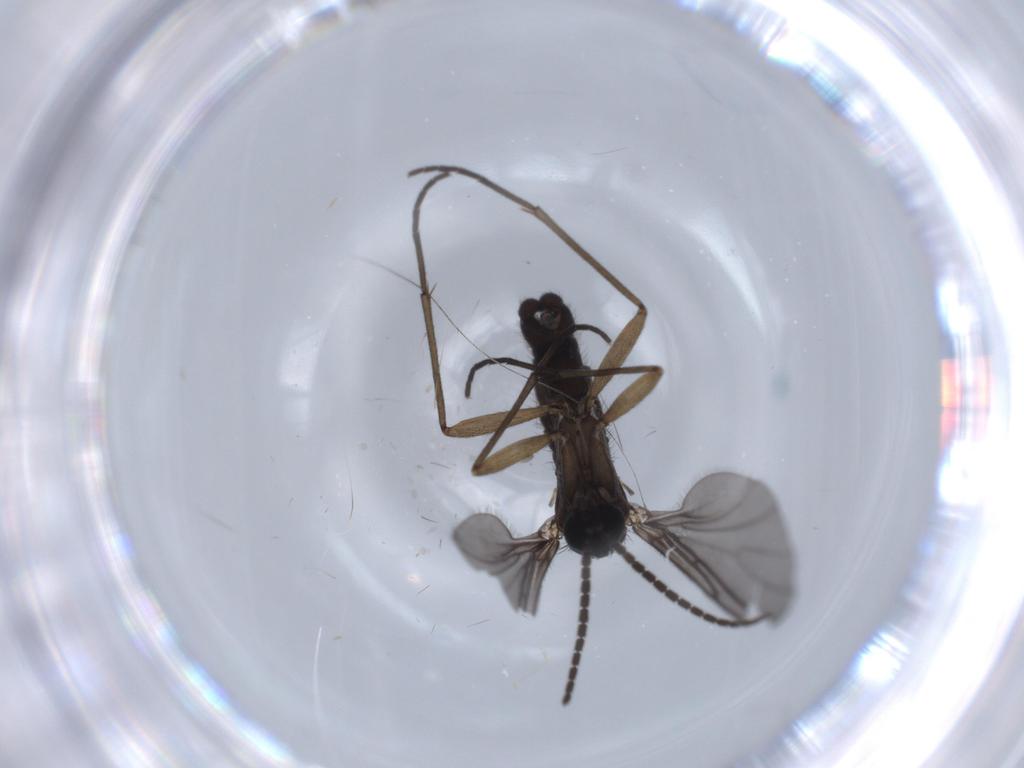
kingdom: Animalia
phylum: Arthropoda
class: Insecta
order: Diptera
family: Sciaridae
